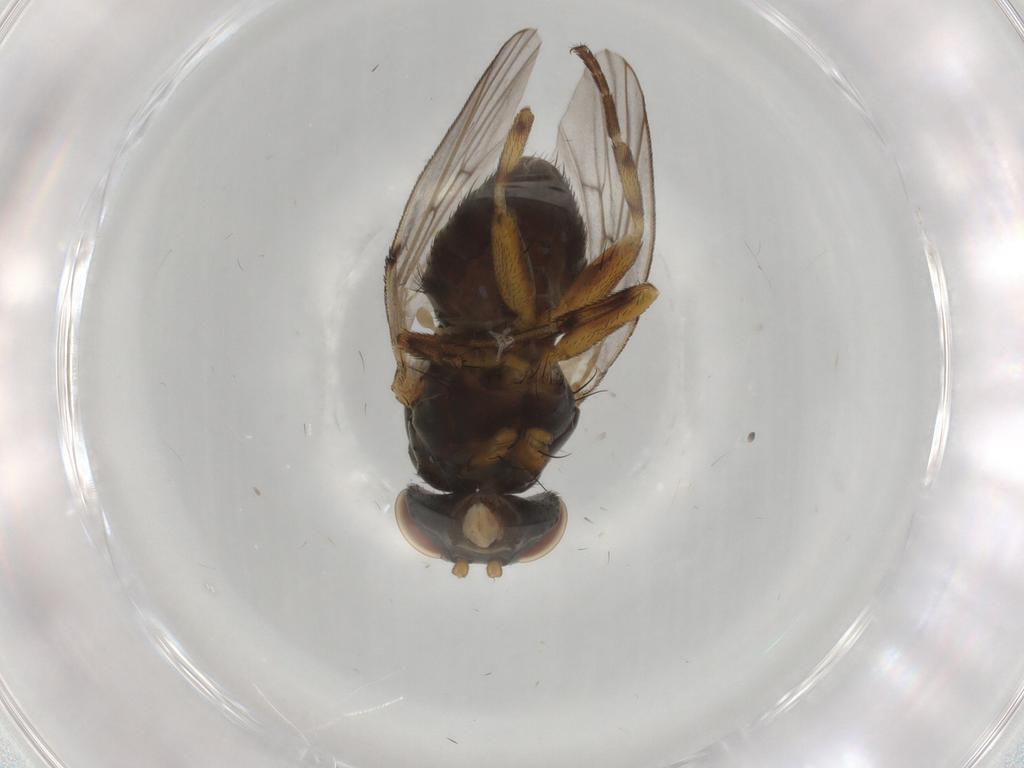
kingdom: Animalia
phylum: Arthropoda
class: Insecta
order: Diptera
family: Odiniidae
